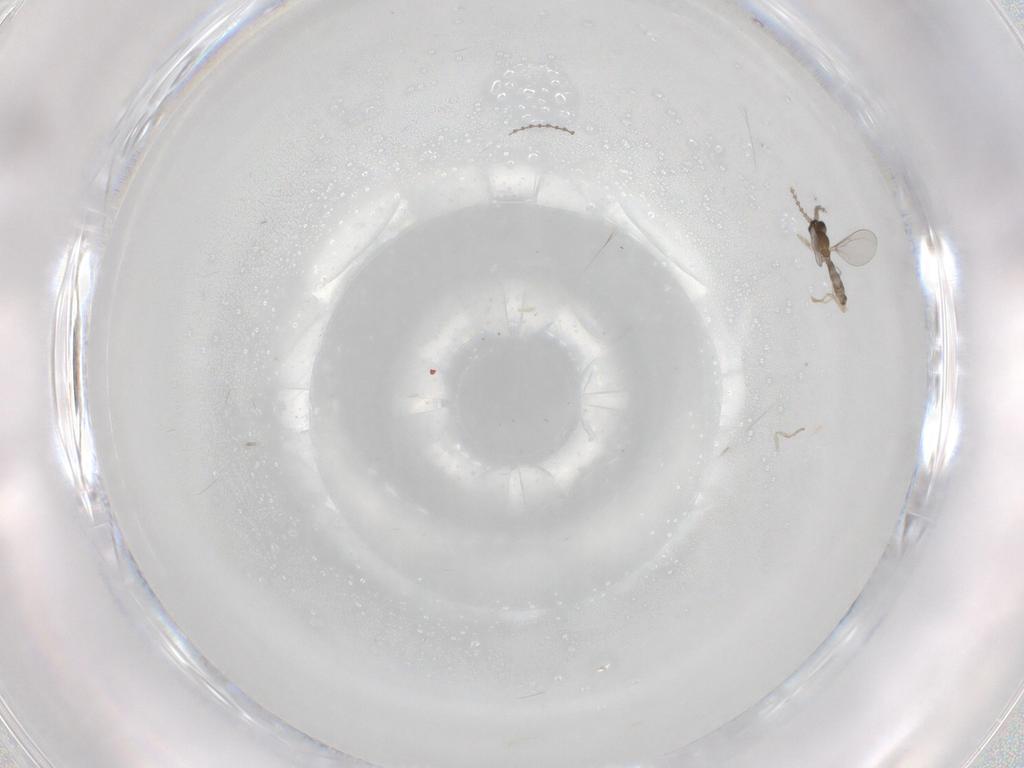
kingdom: Animalia
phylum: Arthropoda
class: Insecta
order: Diptera
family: Cecidomyiidae
